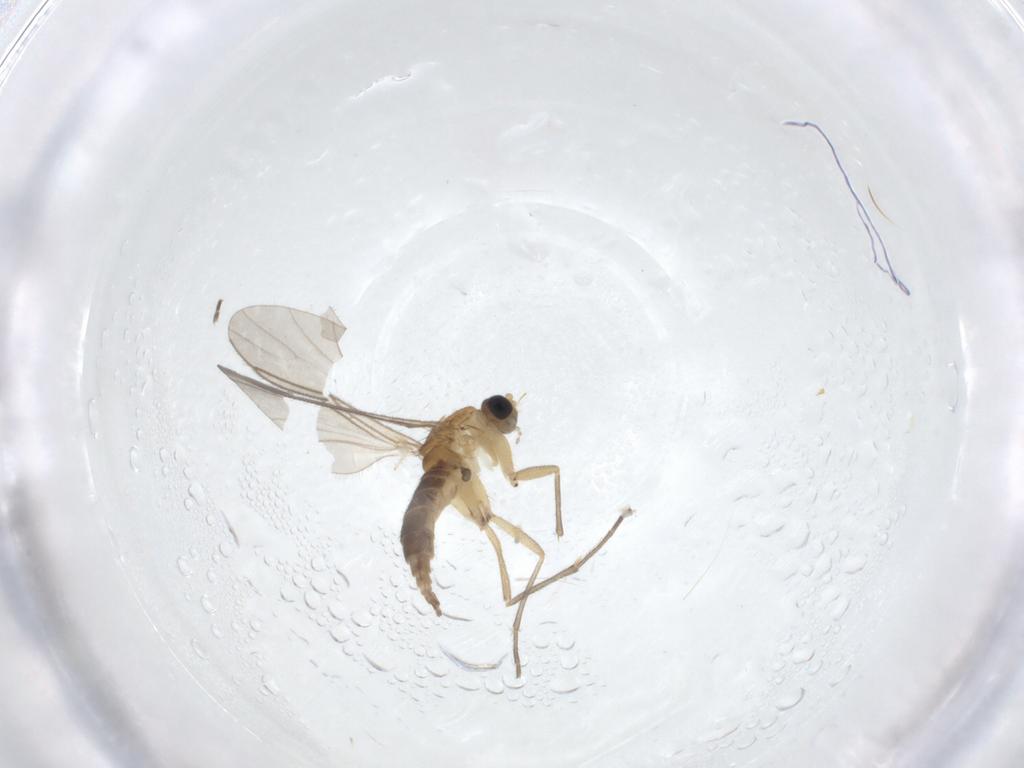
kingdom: Animalia
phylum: Arthropoda
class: Insecta
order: Diptera
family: Sciaridae
